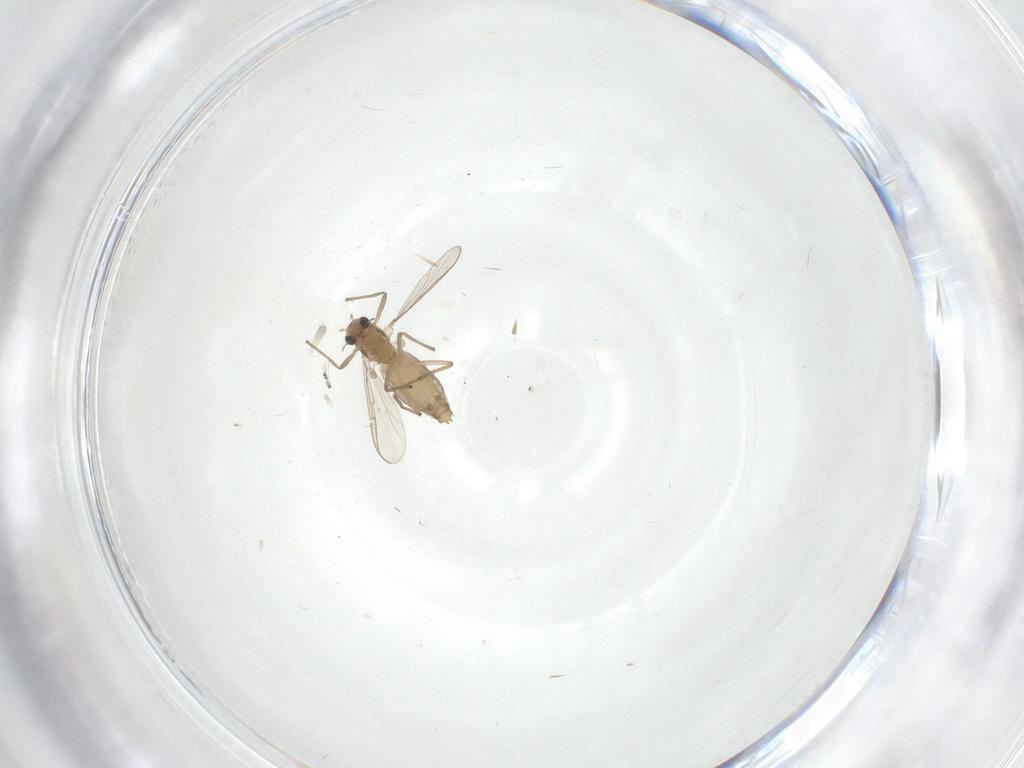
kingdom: Animalia
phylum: Arthropoda
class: Insecta
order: Diptera
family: Chironomidae
